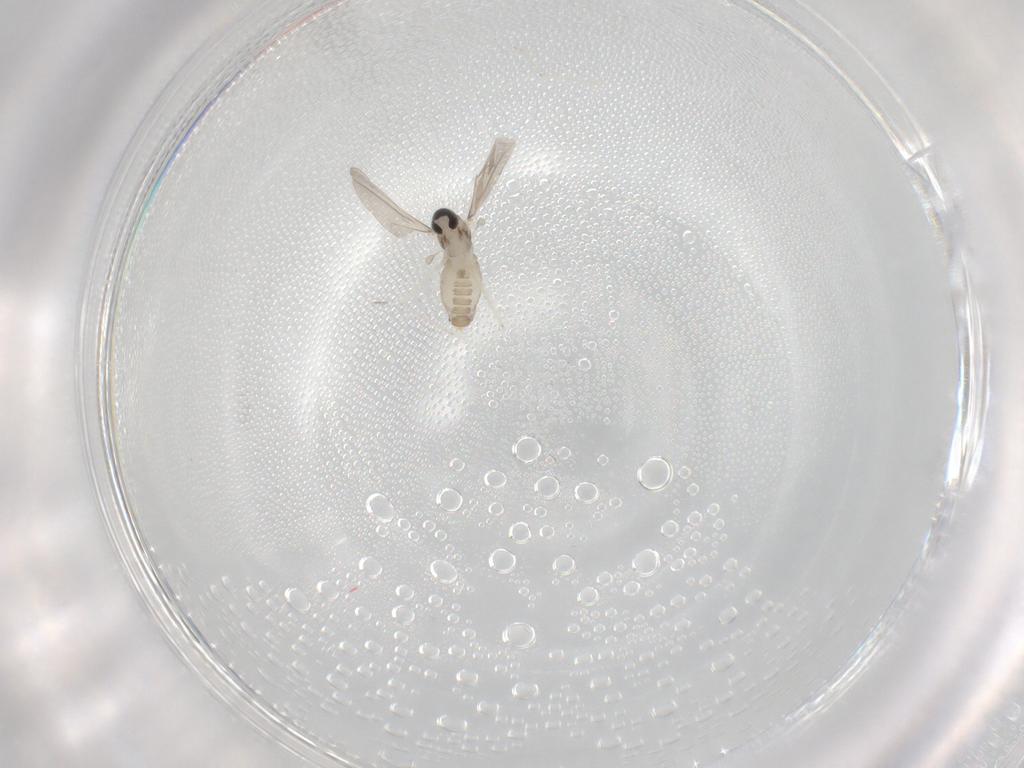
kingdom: Animalia
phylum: Arthropoda
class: Insecta
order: Diptera
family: Cecidomyiidae
